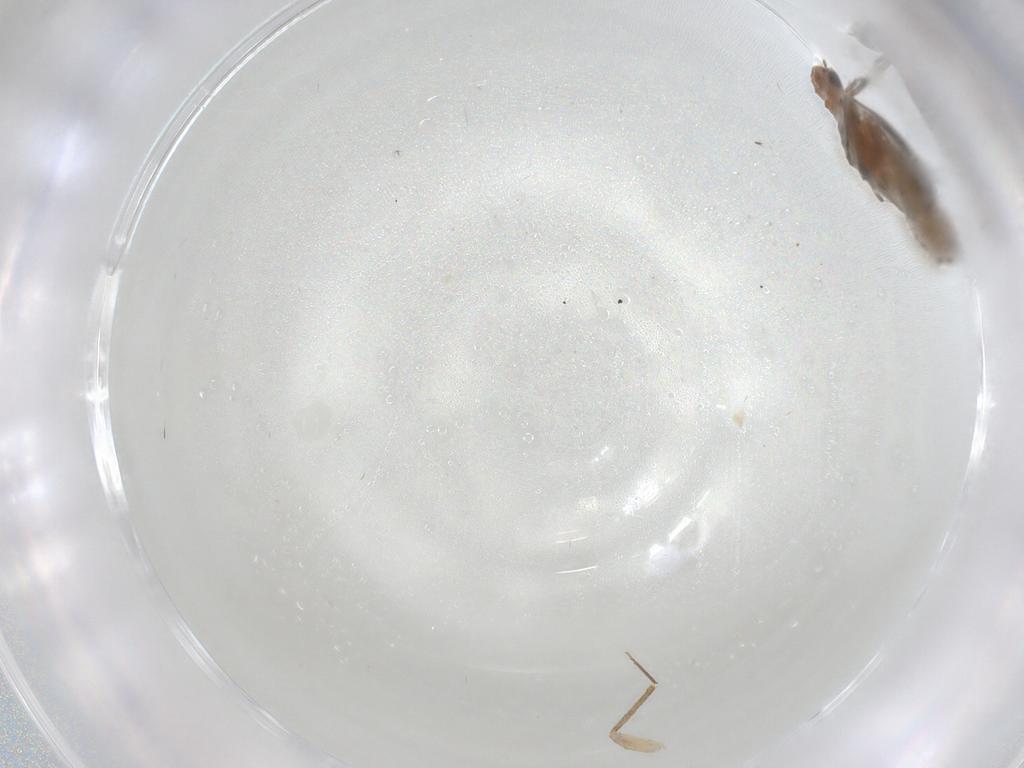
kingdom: Animalia
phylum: Arthropoda
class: Insecta
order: Psocodea
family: Lepidopsocidae
